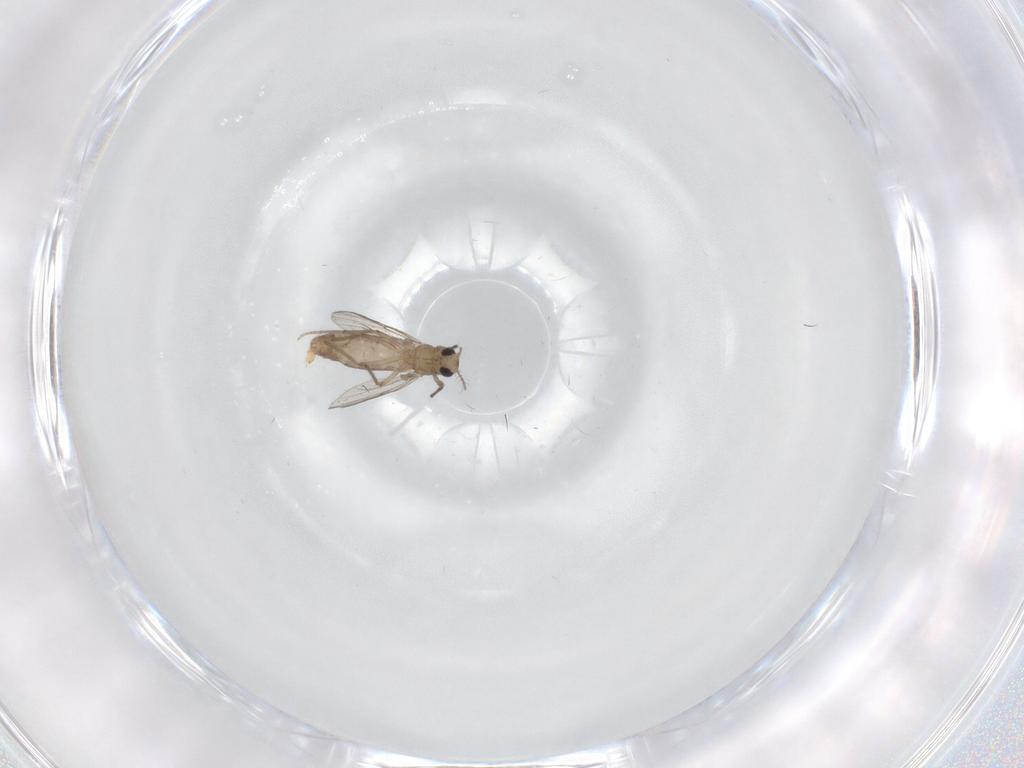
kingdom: Animalia
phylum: Arthropoda
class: Insecta
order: Diptera
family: Chironomidae
